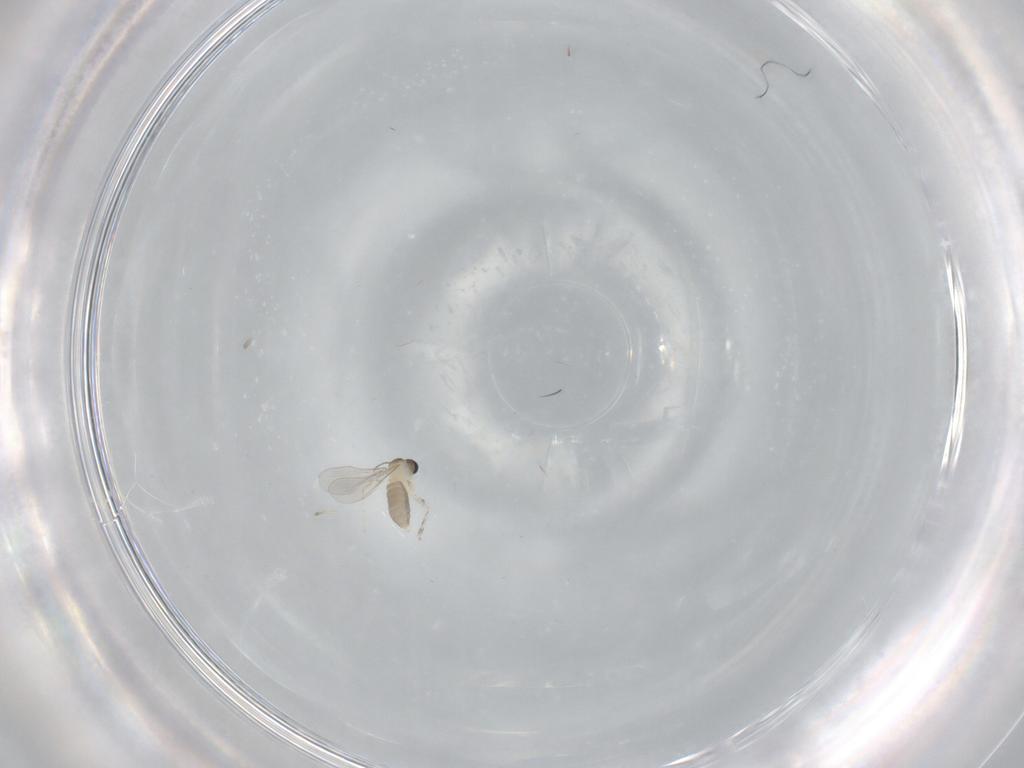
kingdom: Animalia
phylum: Arthropoda
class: Insecta
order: Diptera
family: Cecidomyiidae
